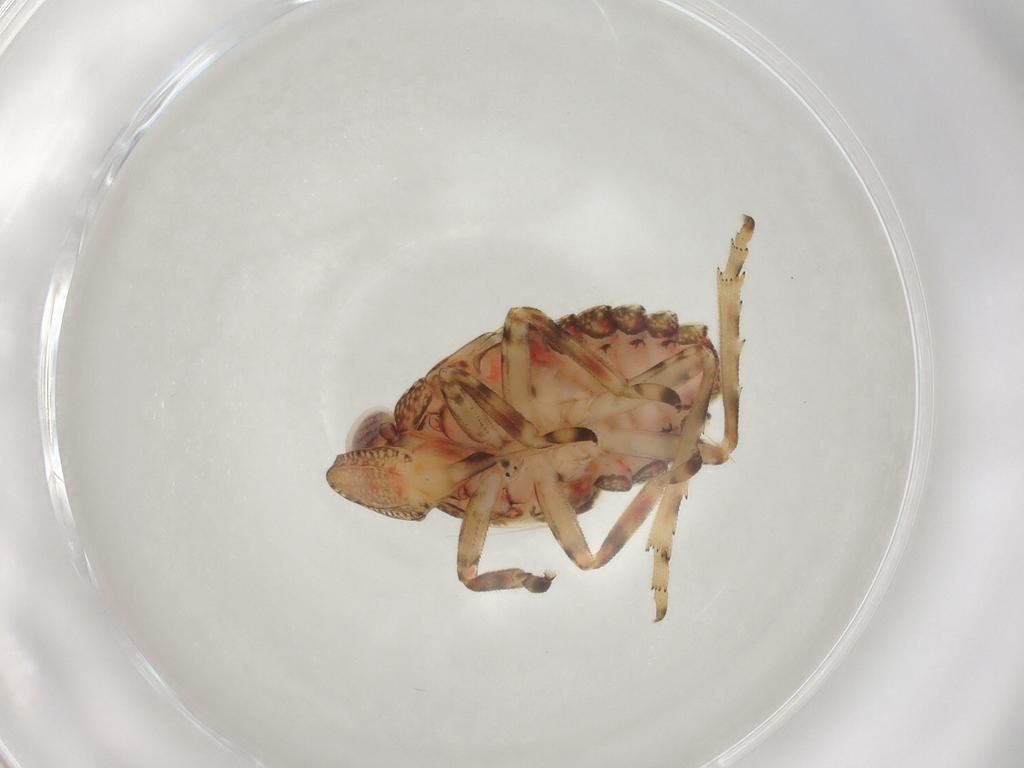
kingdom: Animalia
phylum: Arthropoda
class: Insecta
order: Hemiptera
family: Tropiduchidae
